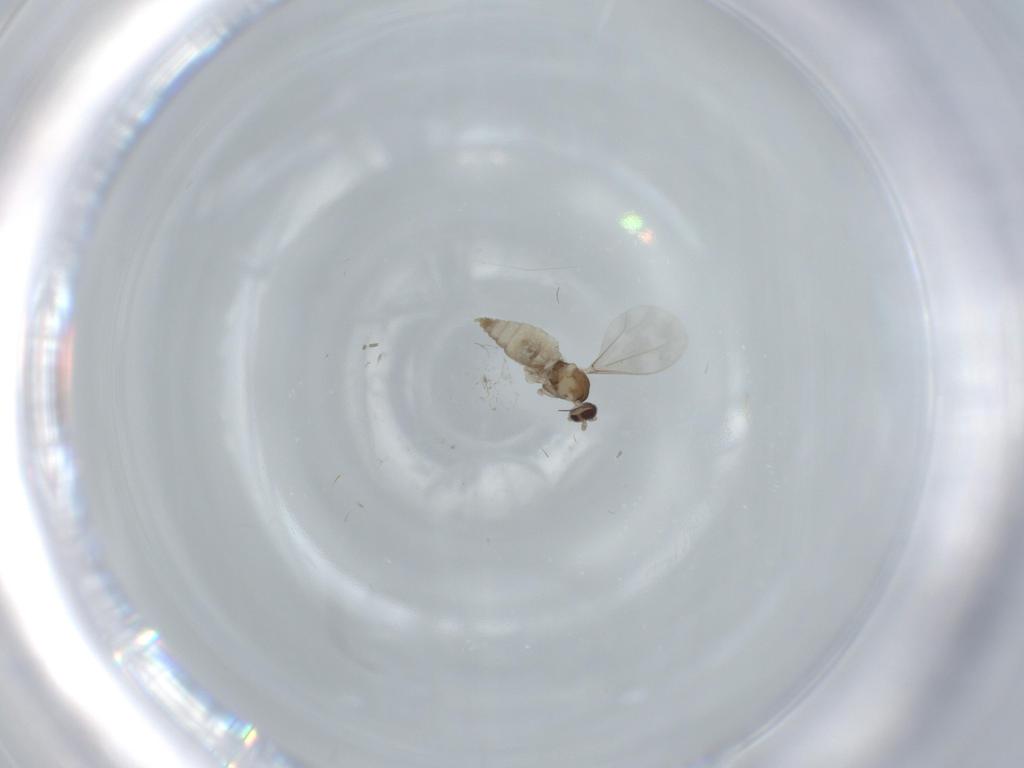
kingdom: Animalia
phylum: Arthropoda
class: Insecta
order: Diptera
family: Cecidomyiidae
